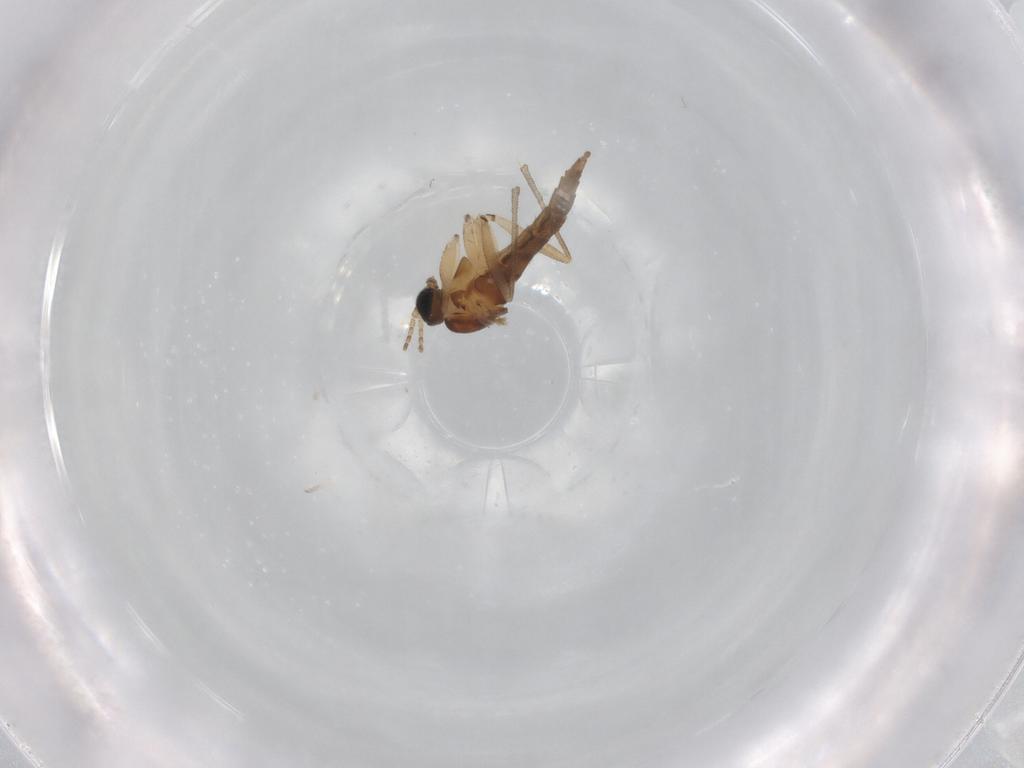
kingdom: Animalia
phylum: Arthropoda
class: Insecta
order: Diptera
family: Sciaridae
